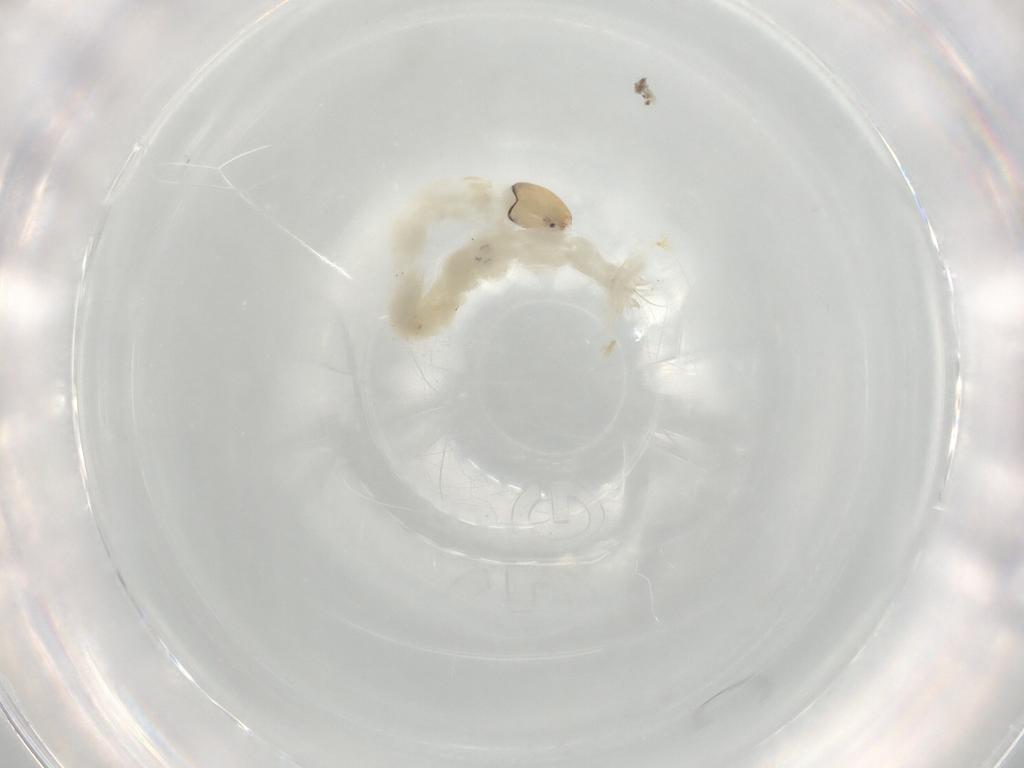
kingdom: Animalia
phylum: Arthropoda
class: Insecta
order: Diptera
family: Chironomidae
